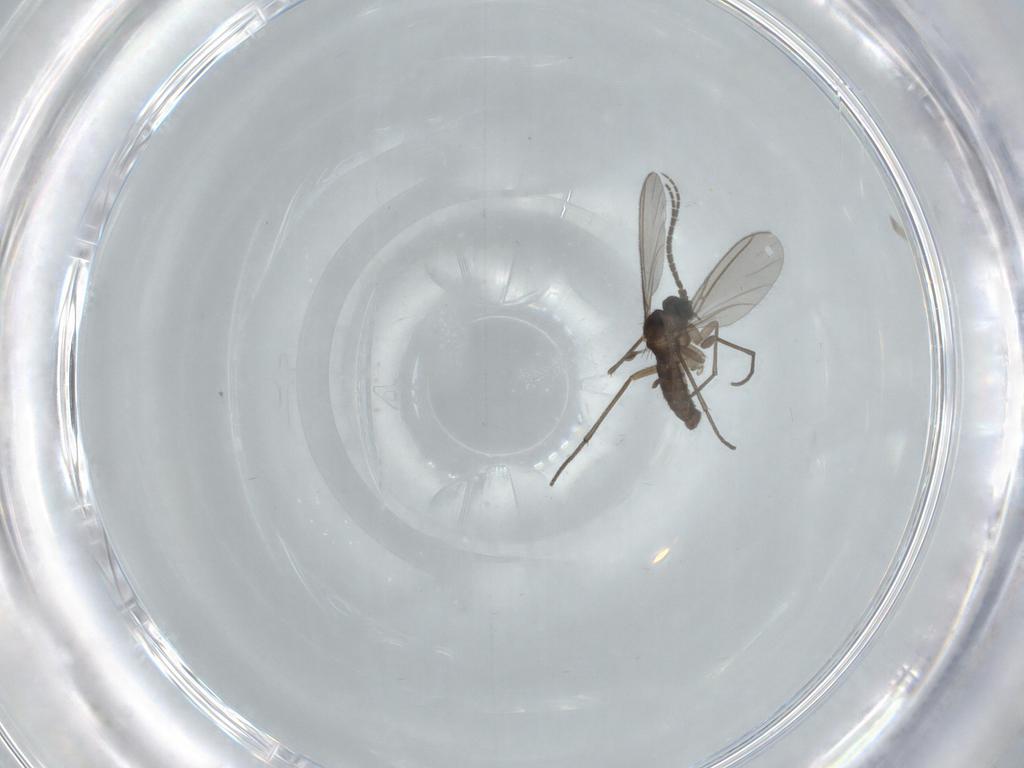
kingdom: Animalia
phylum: Arthropoda
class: Insecta
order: Diptera
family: Sciaridae
